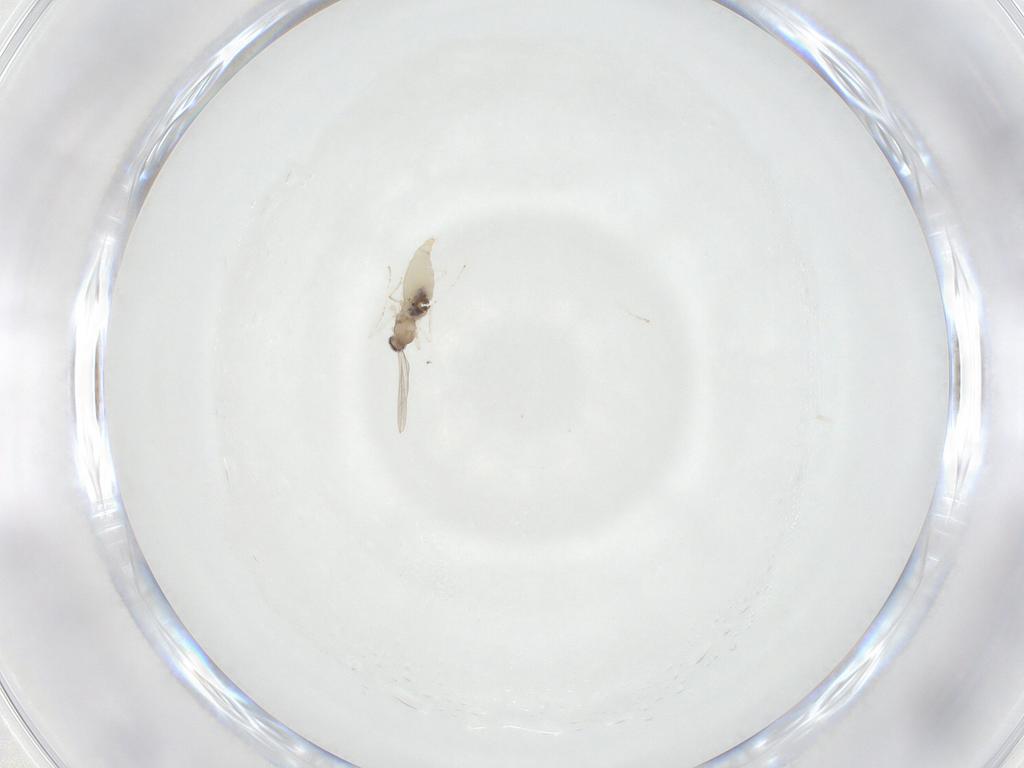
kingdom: Animalia
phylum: Arthropoda
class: Insecta
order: Diptera
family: Cecidomyiidae
